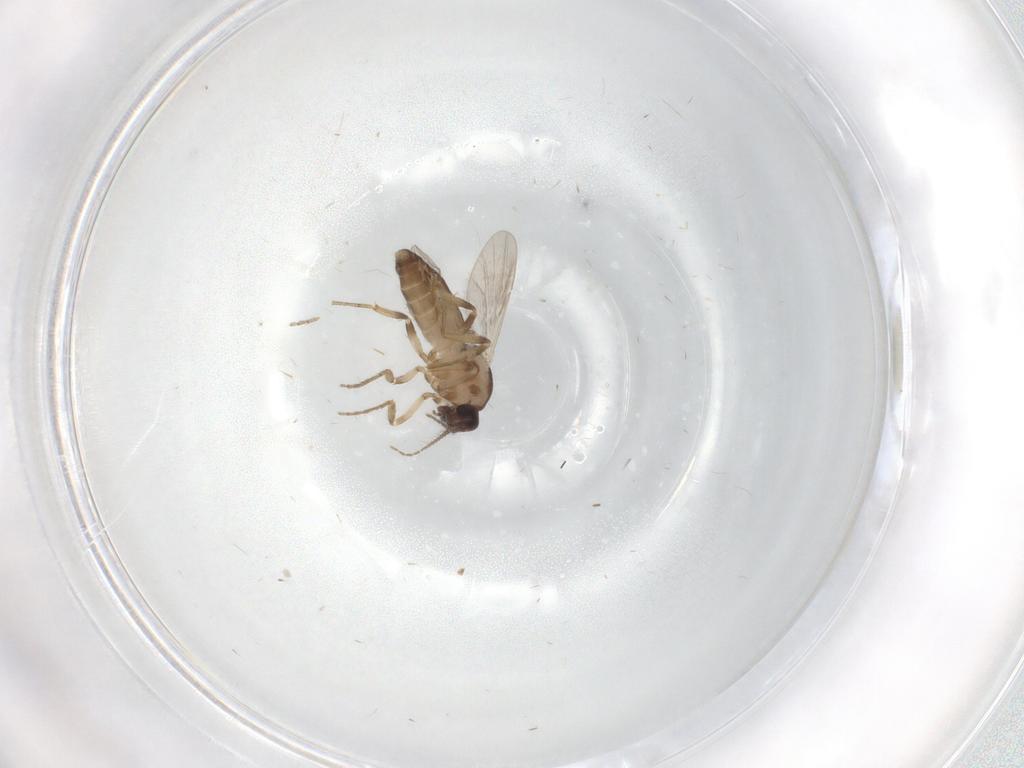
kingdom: Animalia
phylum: Arthropoda
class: Insecta
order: Diptera
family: Ceratopogonidae
